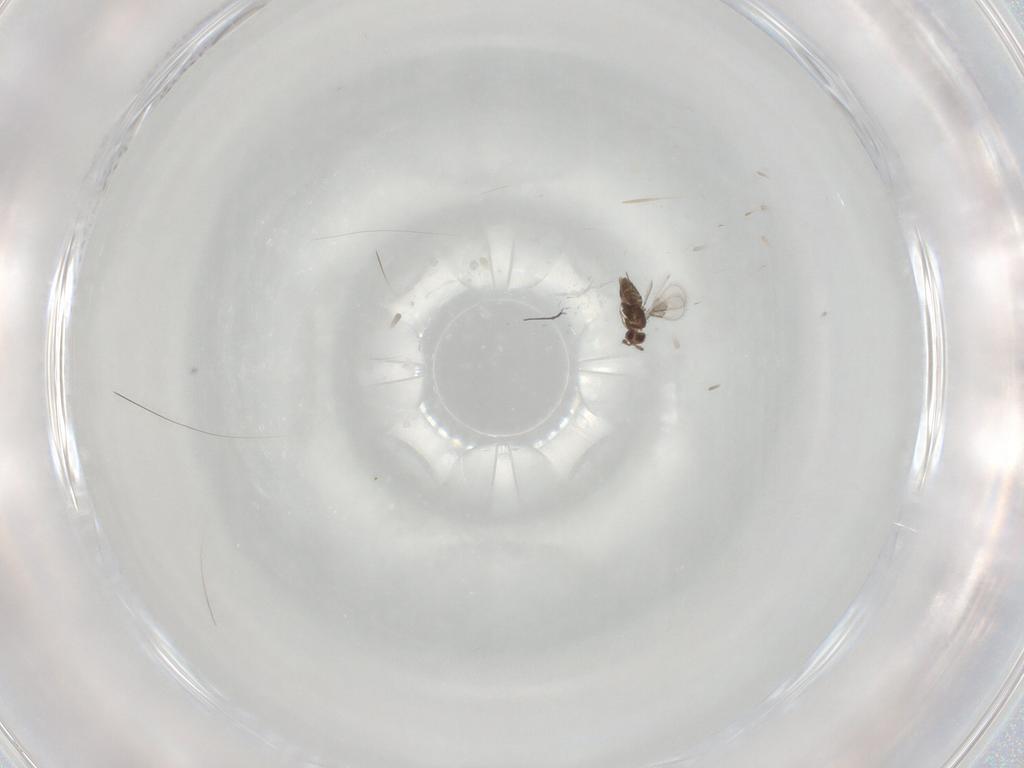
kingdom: Animalia
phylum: Arthropoda
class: Insecta
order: Hymenoptera
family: Trichogrammatidae
